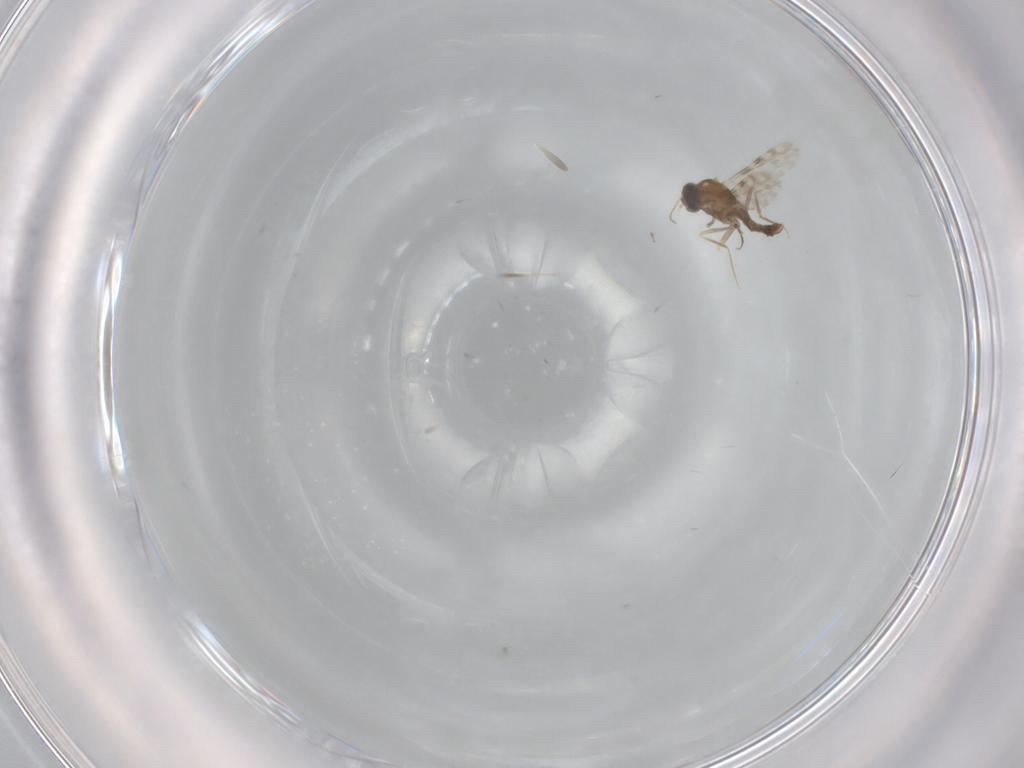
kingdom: Animalia
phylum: Arthropoda
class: Insecta
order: Diptera
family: Ceratopogonidae
